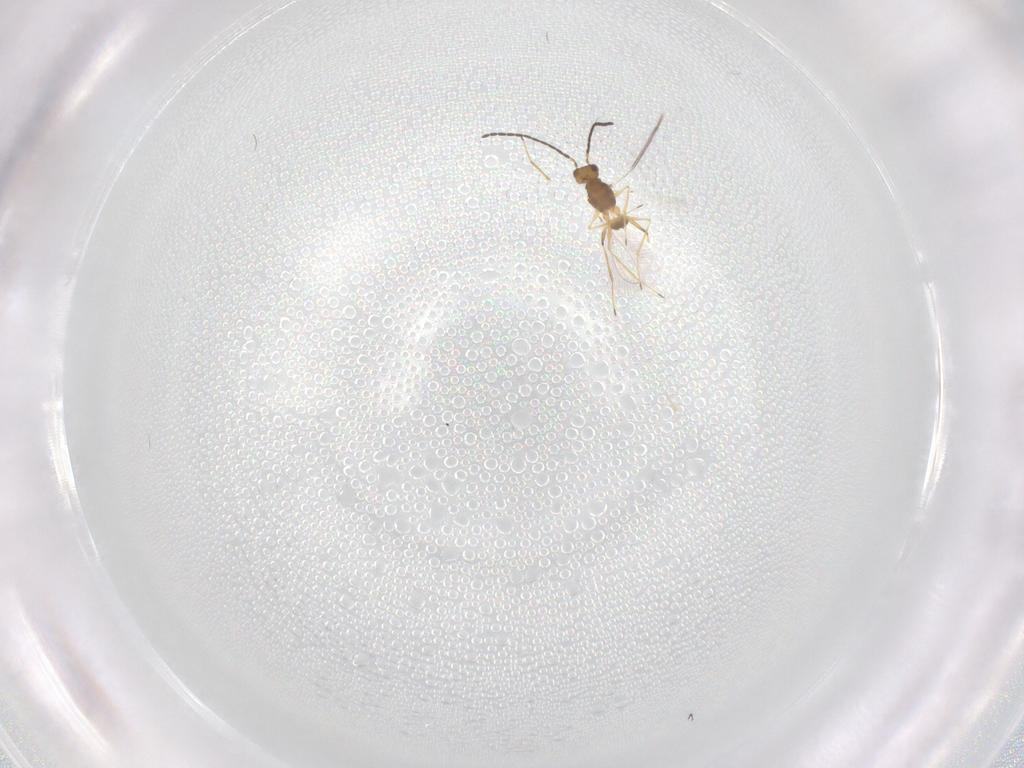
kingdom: Animalia
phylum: Arthropoda
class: Insecta
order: Hymenoptera
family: Mymaridae
